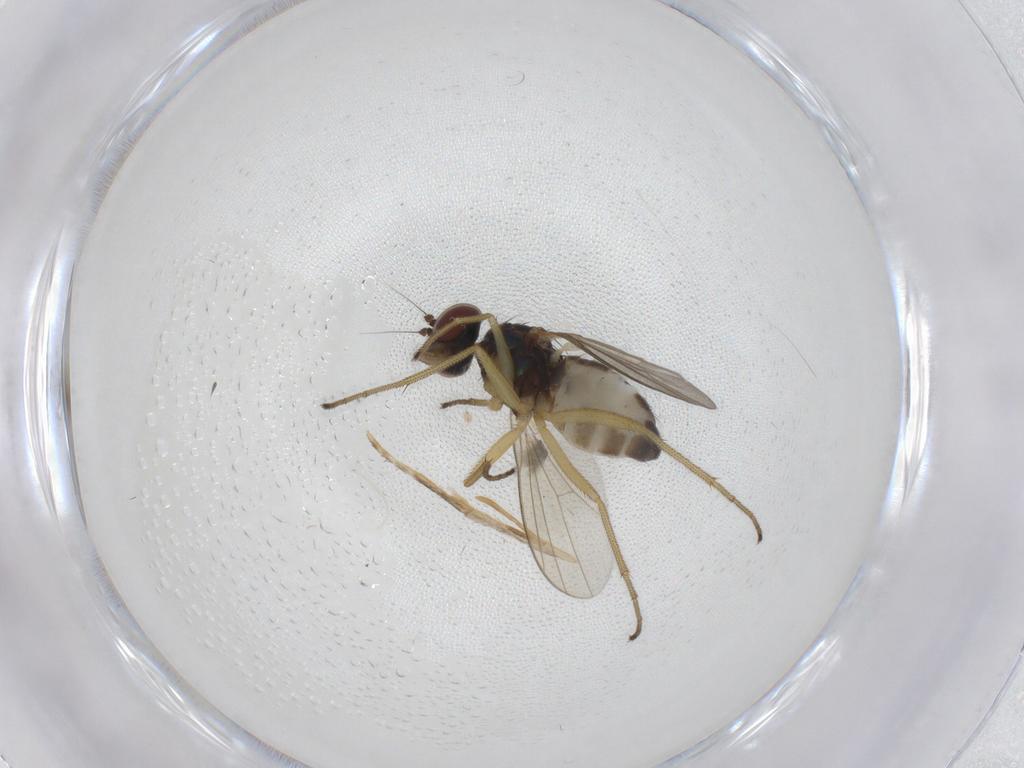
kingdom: Animalia
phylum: Arthropoda
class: Insecta
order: Diptera
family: Dolichopodidae
